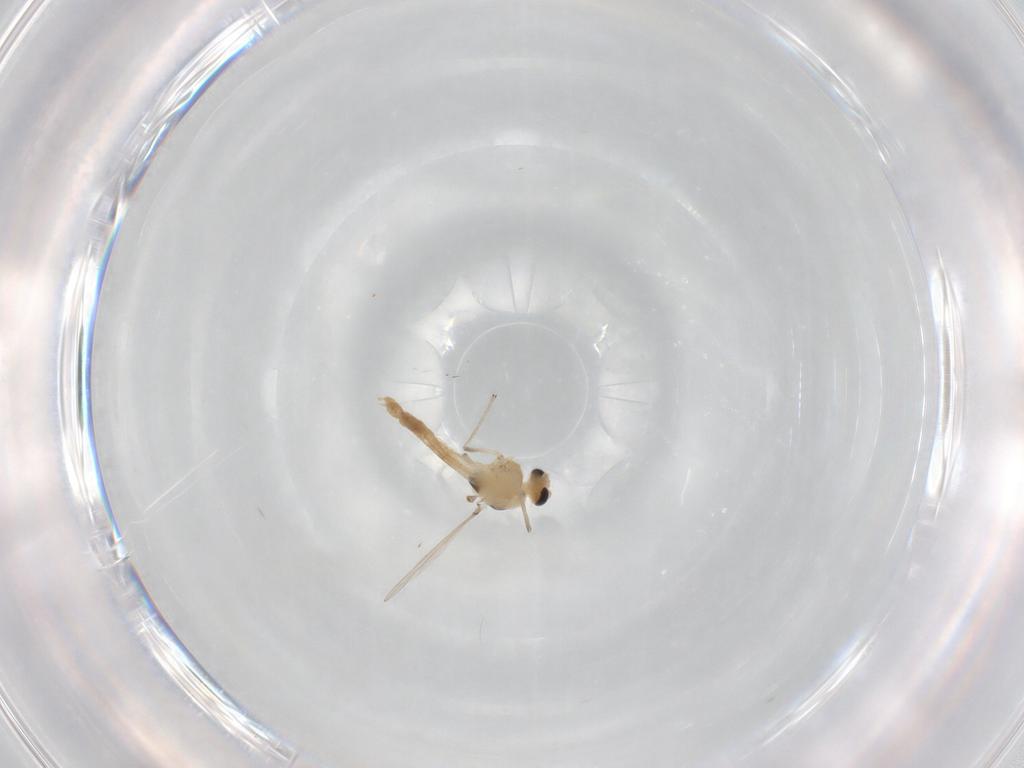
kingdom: Animalia
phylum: Arthropoda
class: Insecta
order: Diptera
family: Chironomidae
